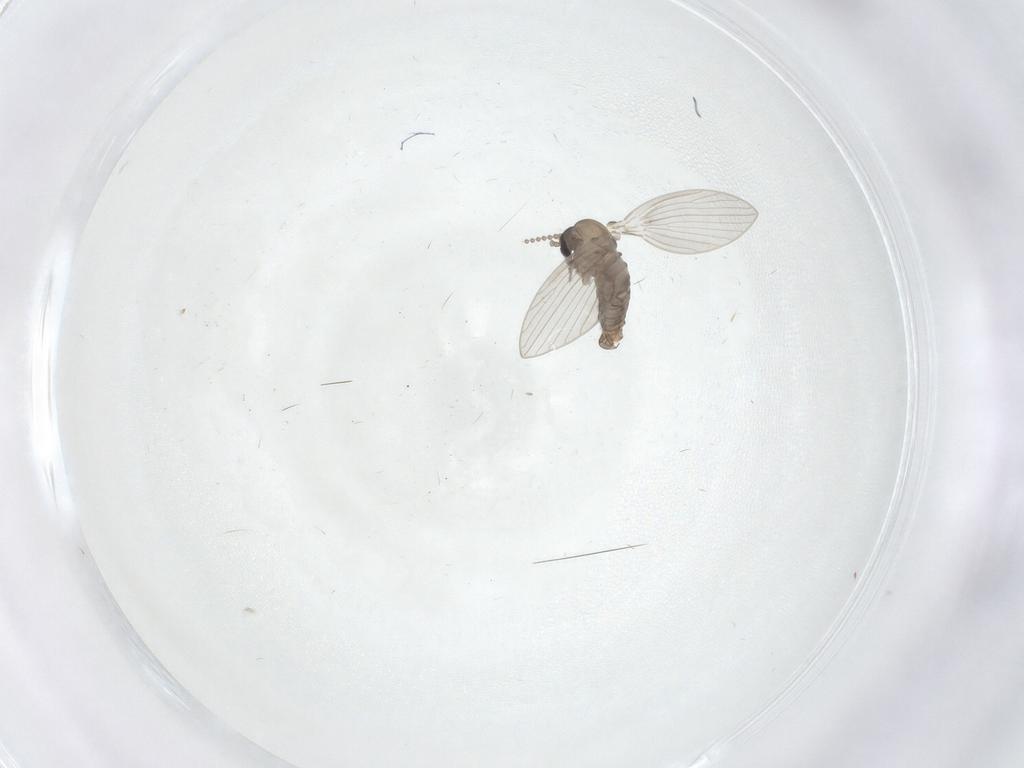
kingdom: Animalia
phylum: Arthropoda
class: Insecta
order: Diptera
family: Psychodidae
